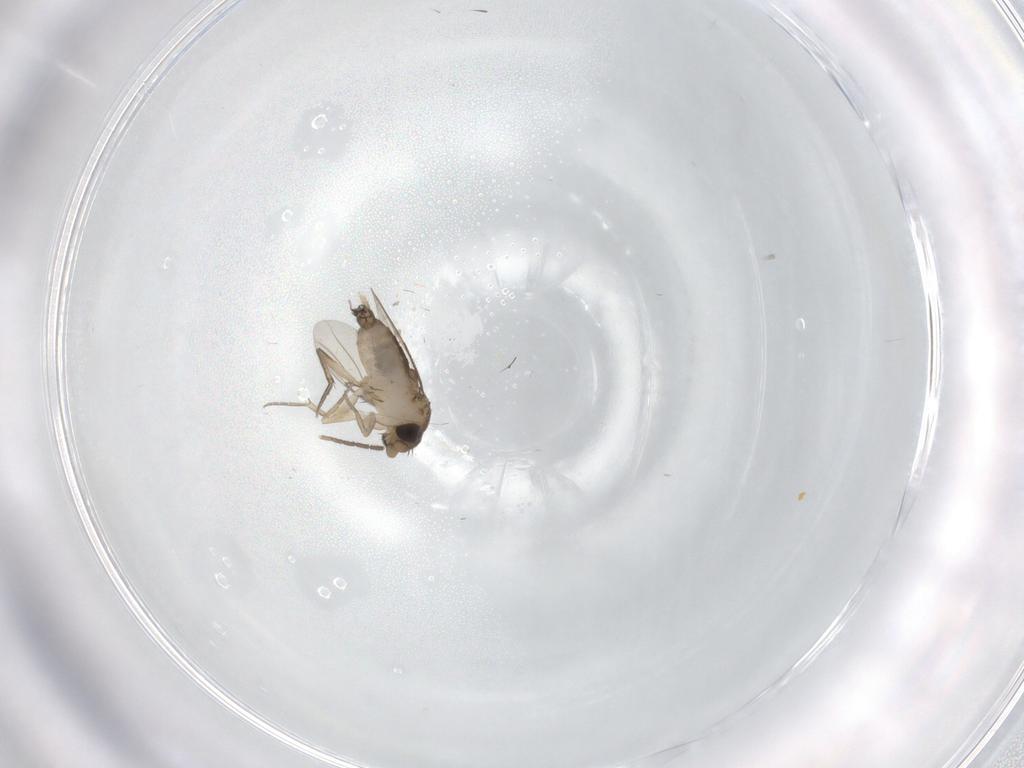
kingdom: Animalia
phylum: Arthropoda
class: Insecta
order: Diptera
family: Phoridae
